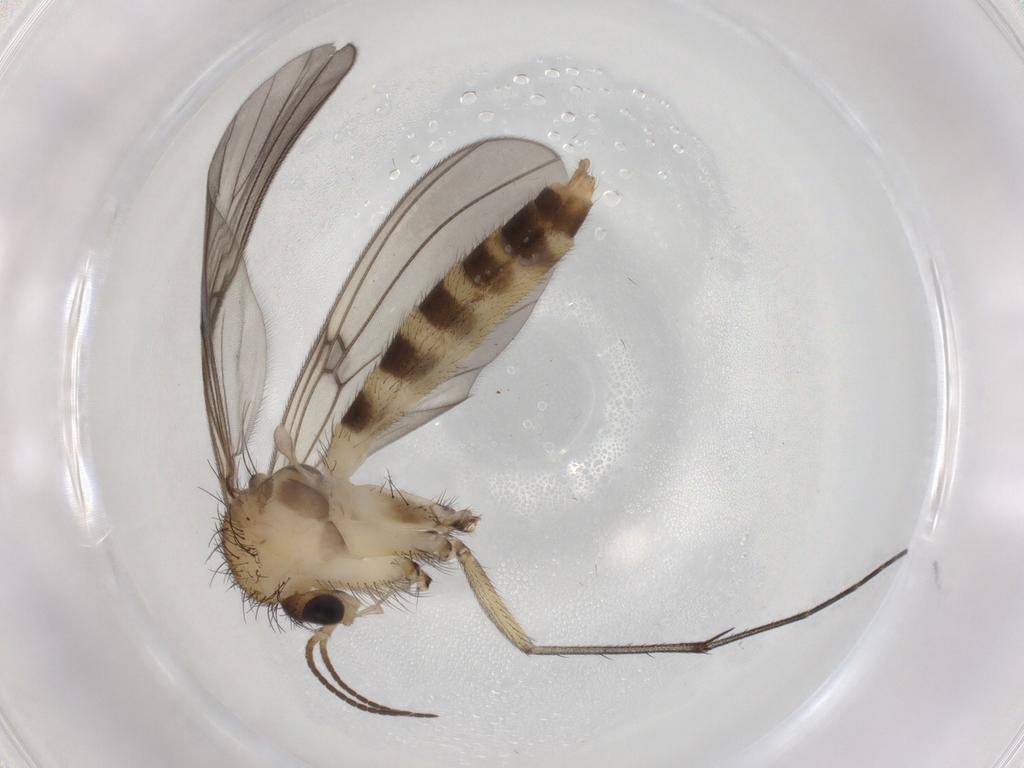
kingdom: Animalia
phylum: Arthropoda
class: Insecta
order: Diptera
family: Mycetophilidae
